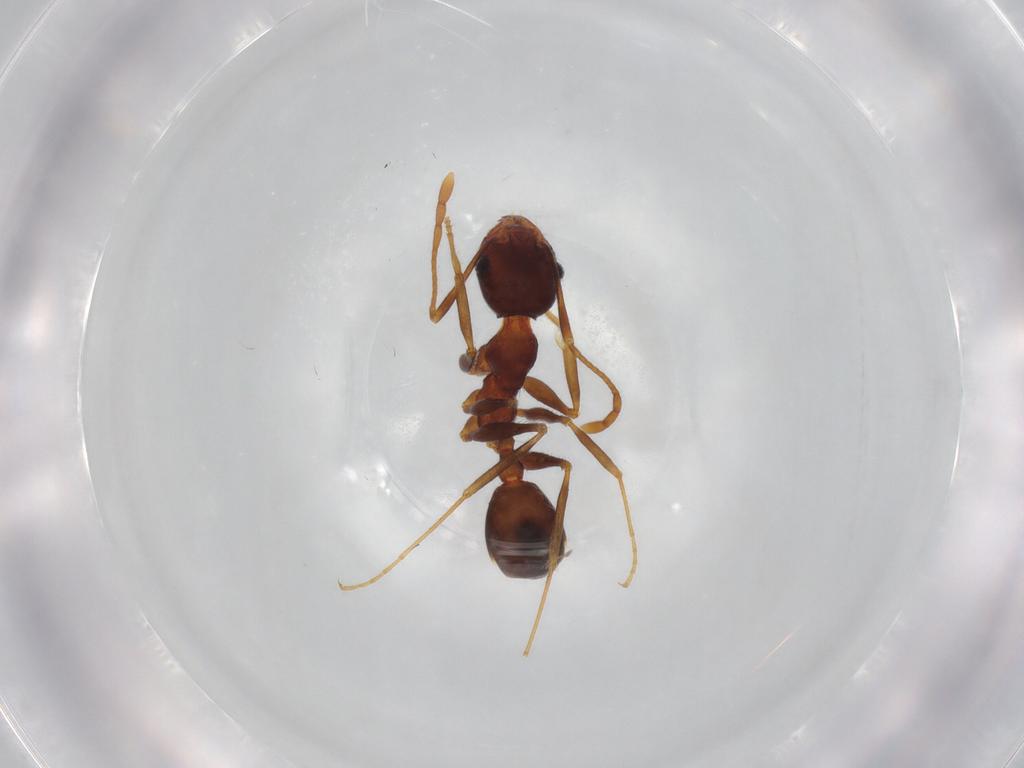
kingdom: Animalia
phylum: Arthropoda
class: Insecta
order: Hymenoptera
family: Formicidae
